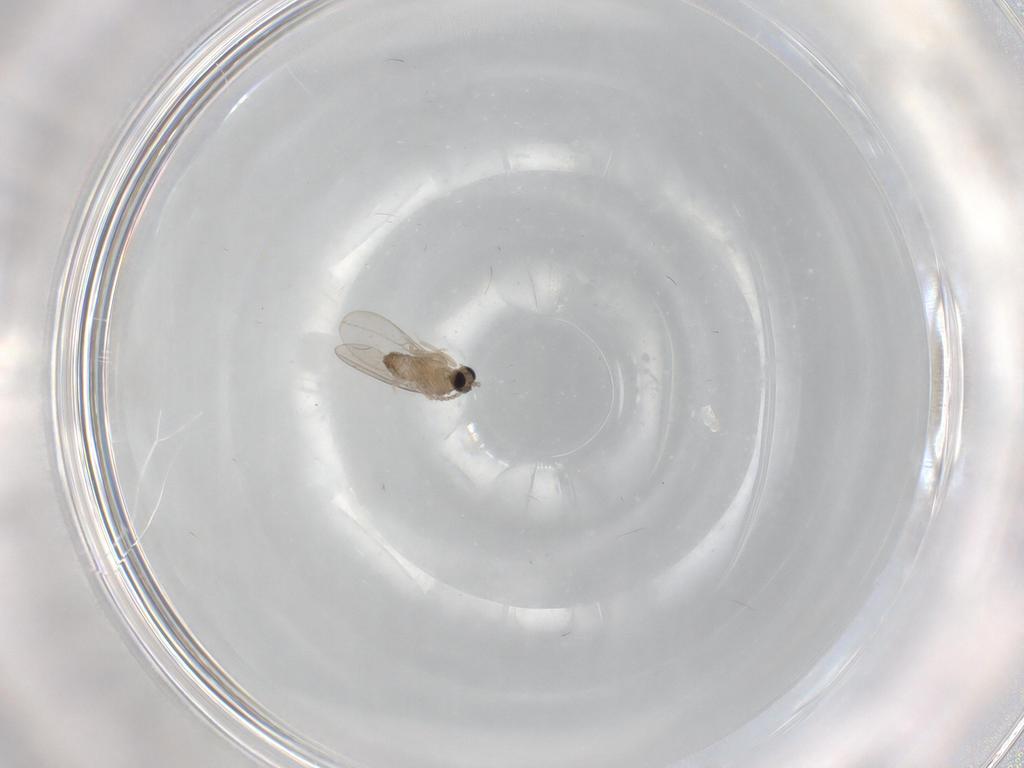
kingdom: Animalia
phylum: Arthropoda
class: Insecta
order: Diptera
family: Cecidomyiidae
